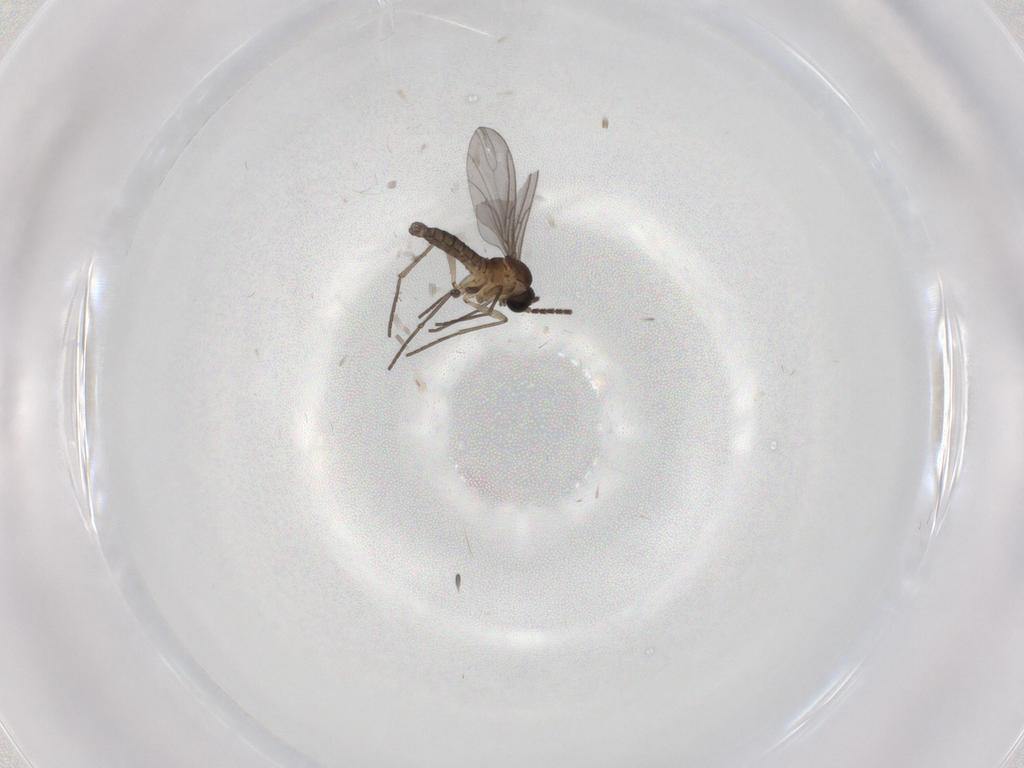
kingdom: Animalia
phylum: Arthropoda
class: Insecta
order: Diptera
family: Sciaridae
